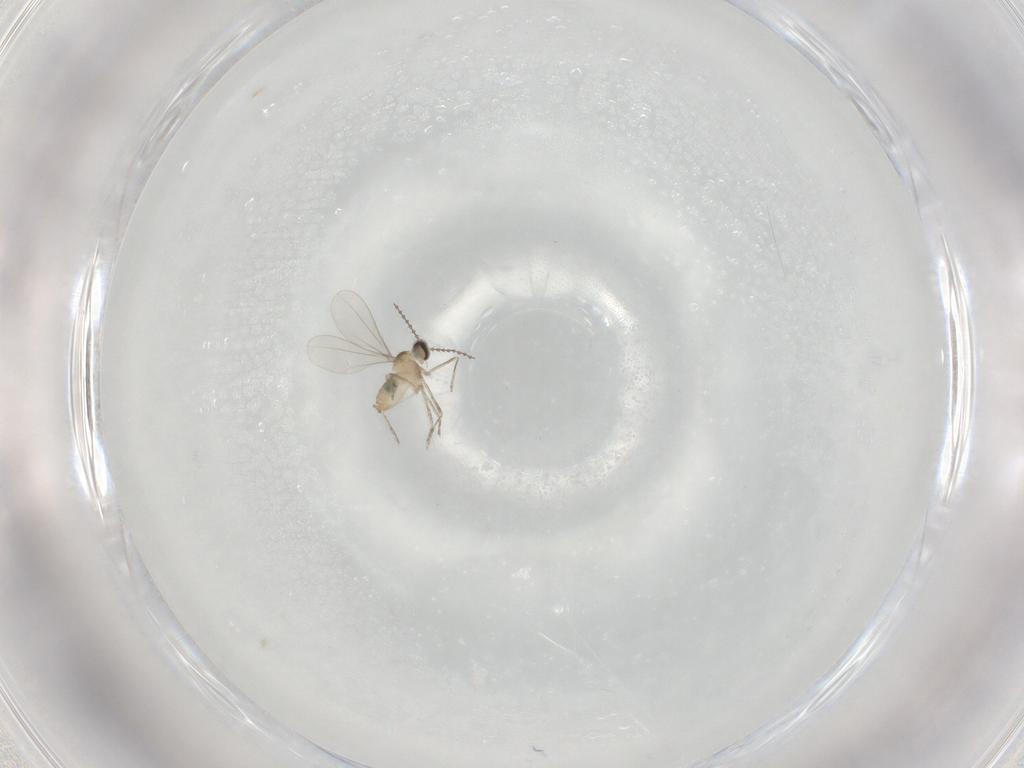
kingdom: Animalia
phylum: Arthropoda
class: Insecta
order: Diptera
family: Cecidomyiidae
